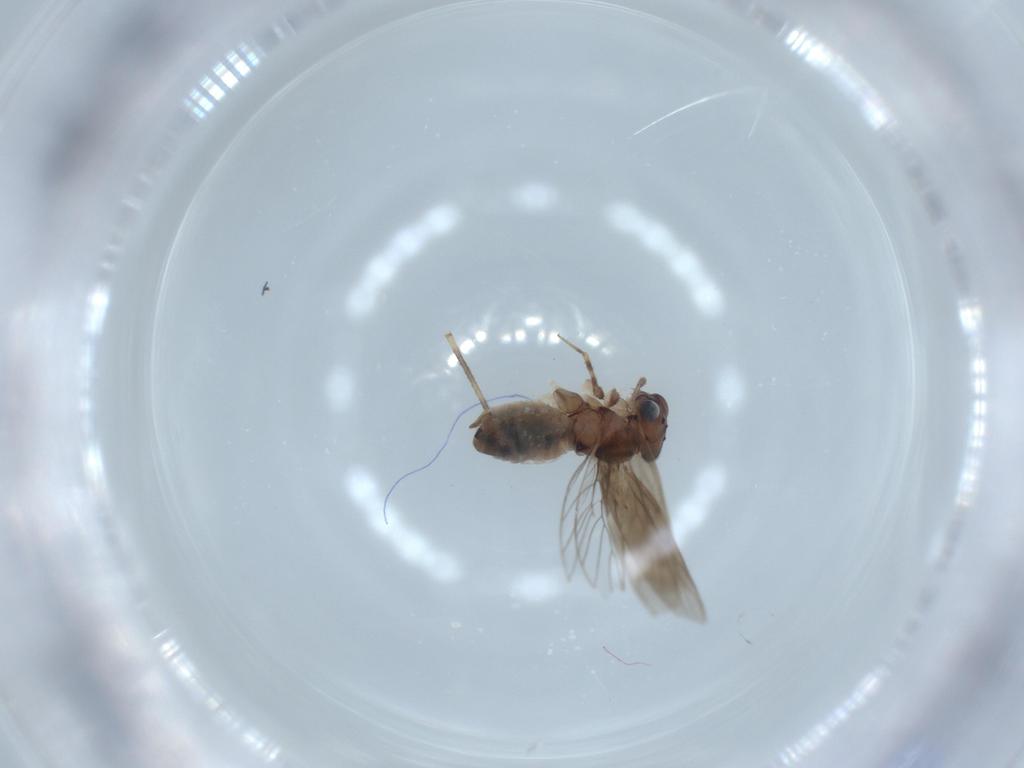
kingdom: Animalia
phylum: Arthropoda
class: Insecta
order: Psocodea
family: Lepidopsocidae
